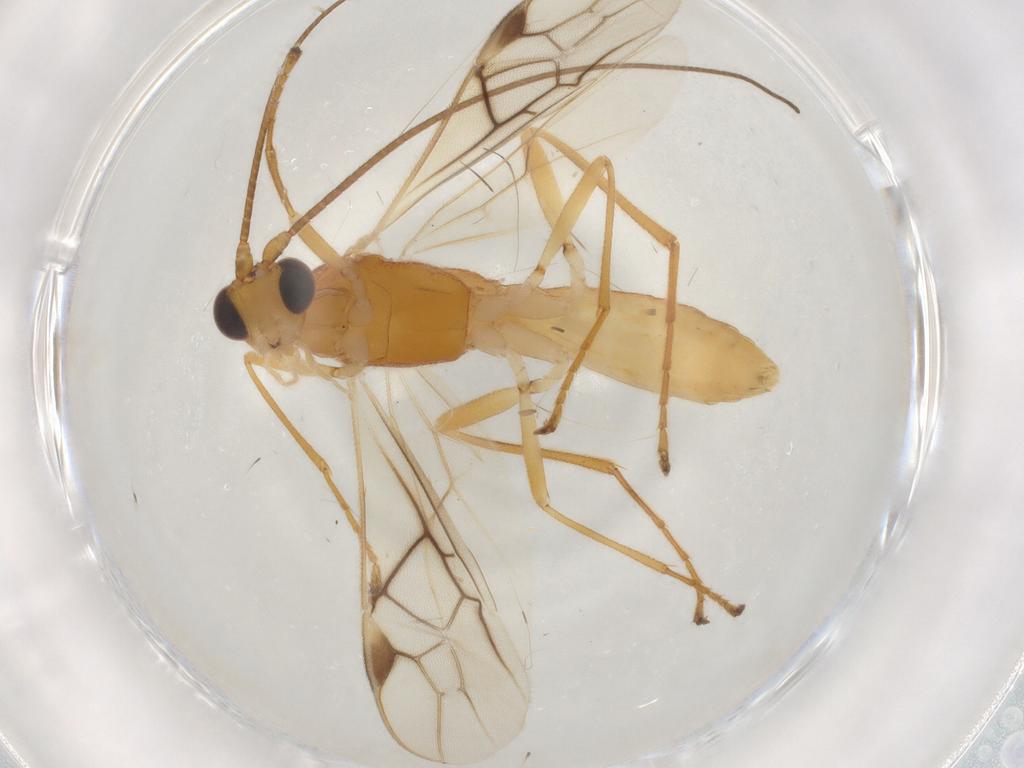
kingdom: Animalia
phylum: Arthropoda
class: Insecta
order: Hymenoptera
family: Braconidae
